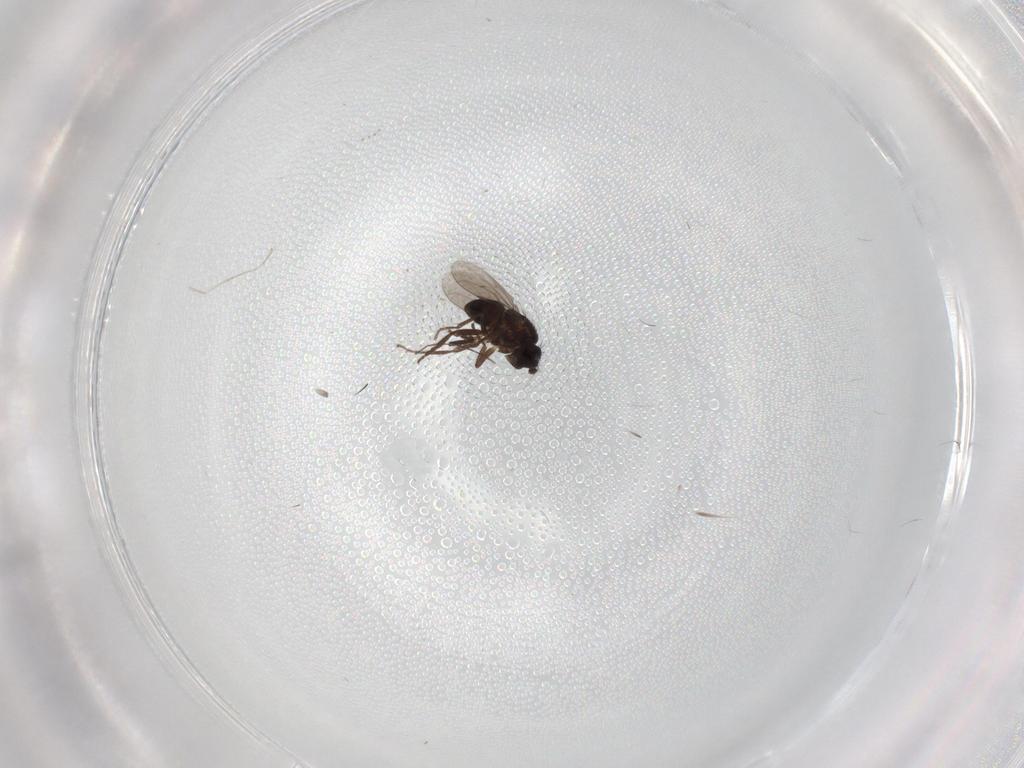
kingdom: Animalia
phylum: Arthropoda
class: Insecta
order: Diptera
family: Sphaeroceridae
